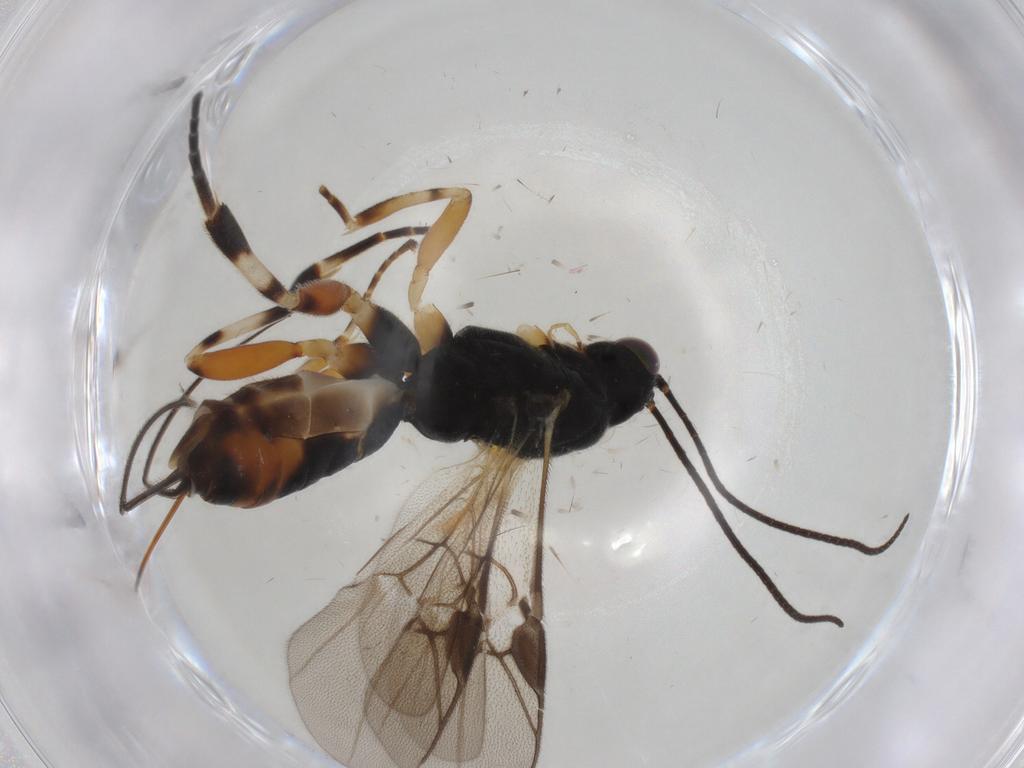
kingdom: Animalia
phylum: Arthropoda
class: Insecta
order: Hymenoptera
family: Braconidae
